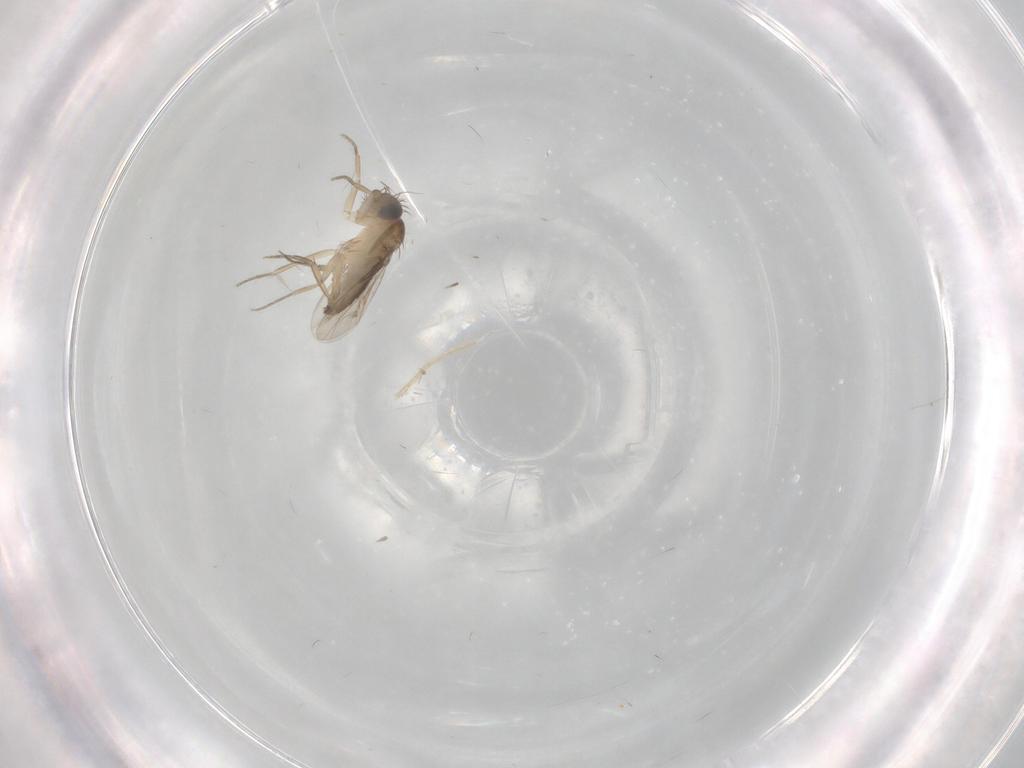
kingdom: Animalia
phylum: Arthropoda
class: Insecta
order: Diptera
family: Phoridae
